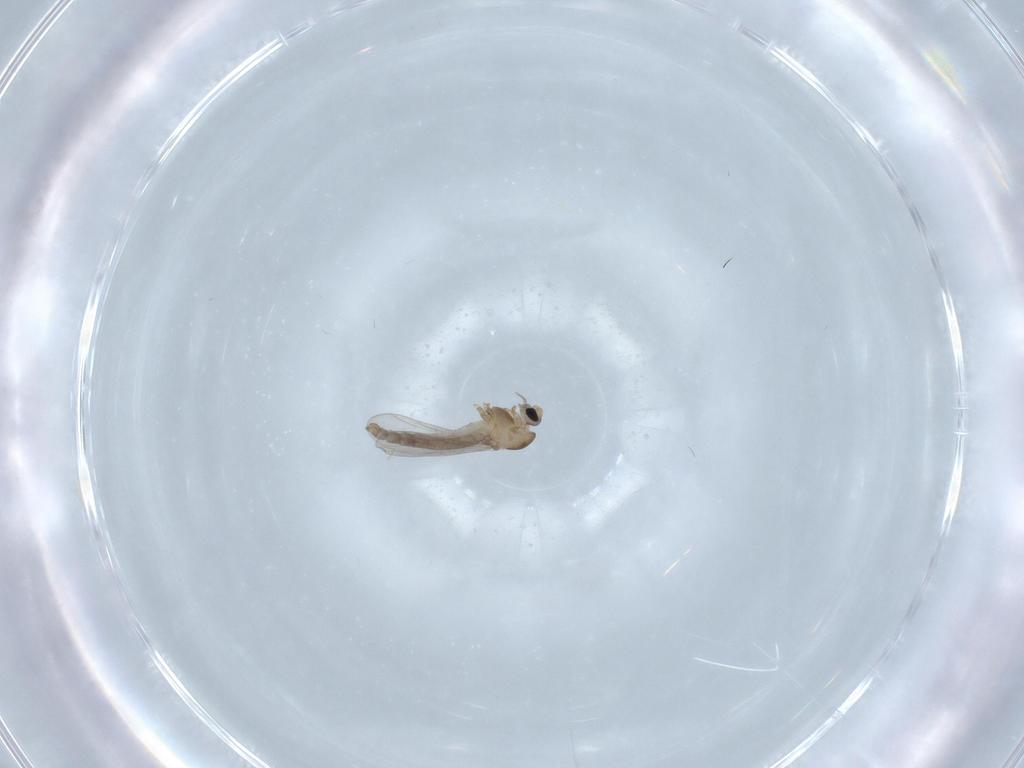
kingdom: Animalia
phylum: Arthropoda
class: Insecta
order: Diptera
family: Chironomidae
